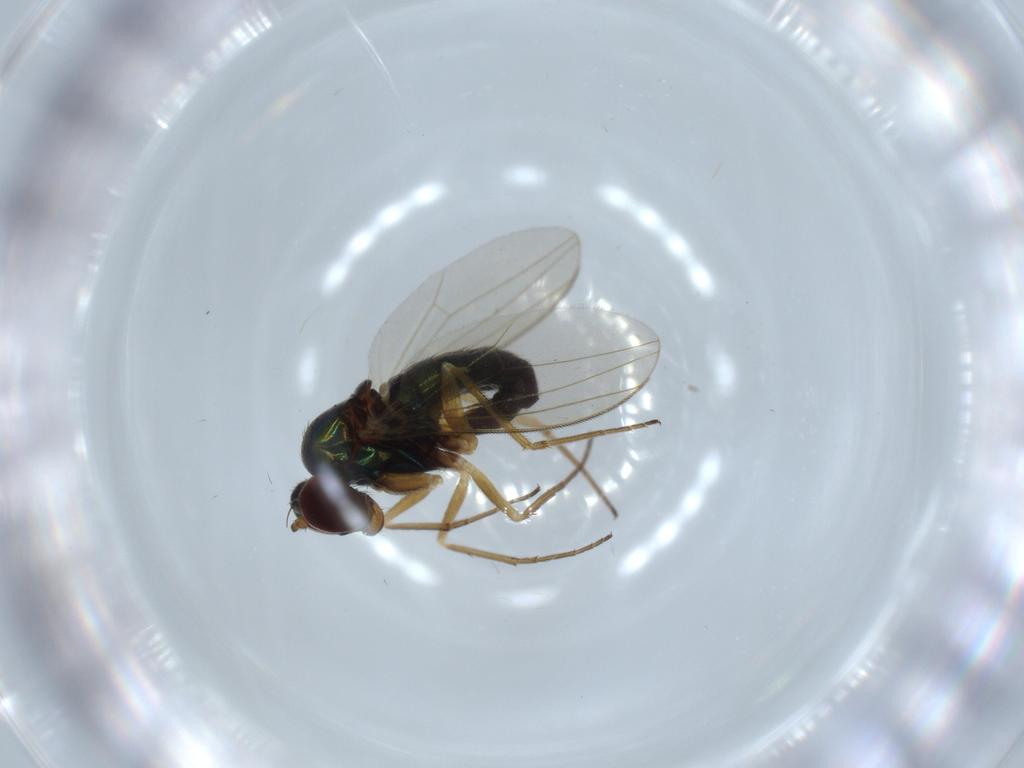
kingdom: Animalia
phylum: Arthropoda
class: Insecta
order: Diptera
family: Dolichopodidae
